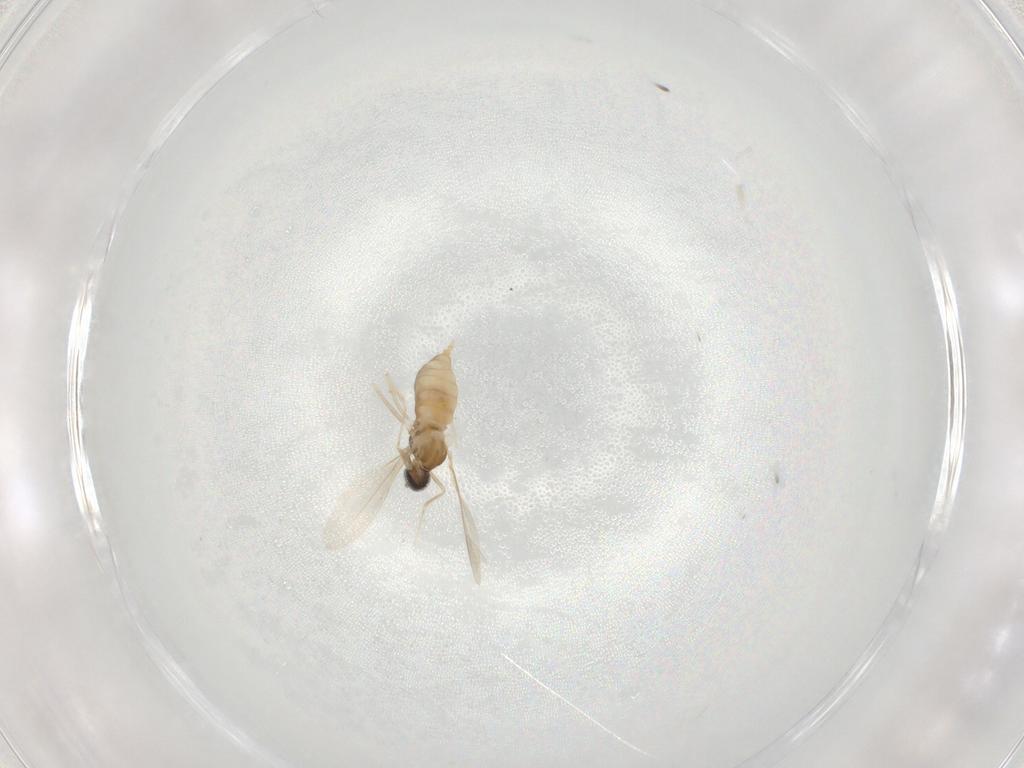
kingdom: Animalia
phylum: Arthropoda
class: Insecta
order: Diptera
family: Cecidomyiidae
